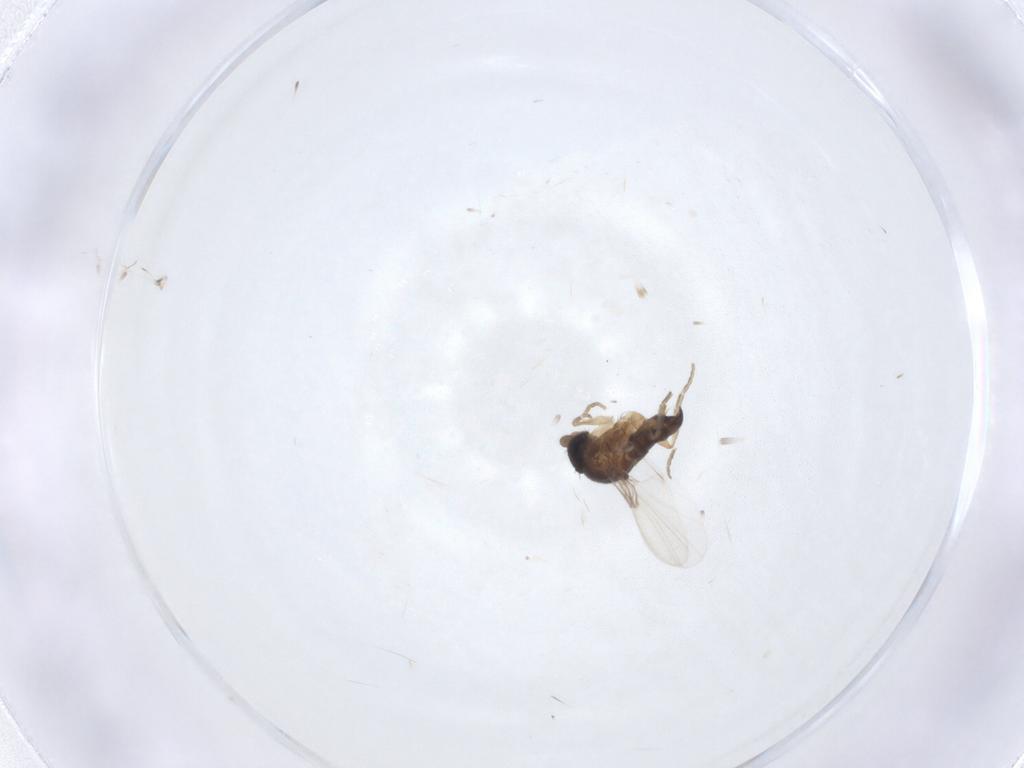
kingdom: Animalia
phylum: Arthropoda
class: Insecta
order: Diptera
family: Phoridae
